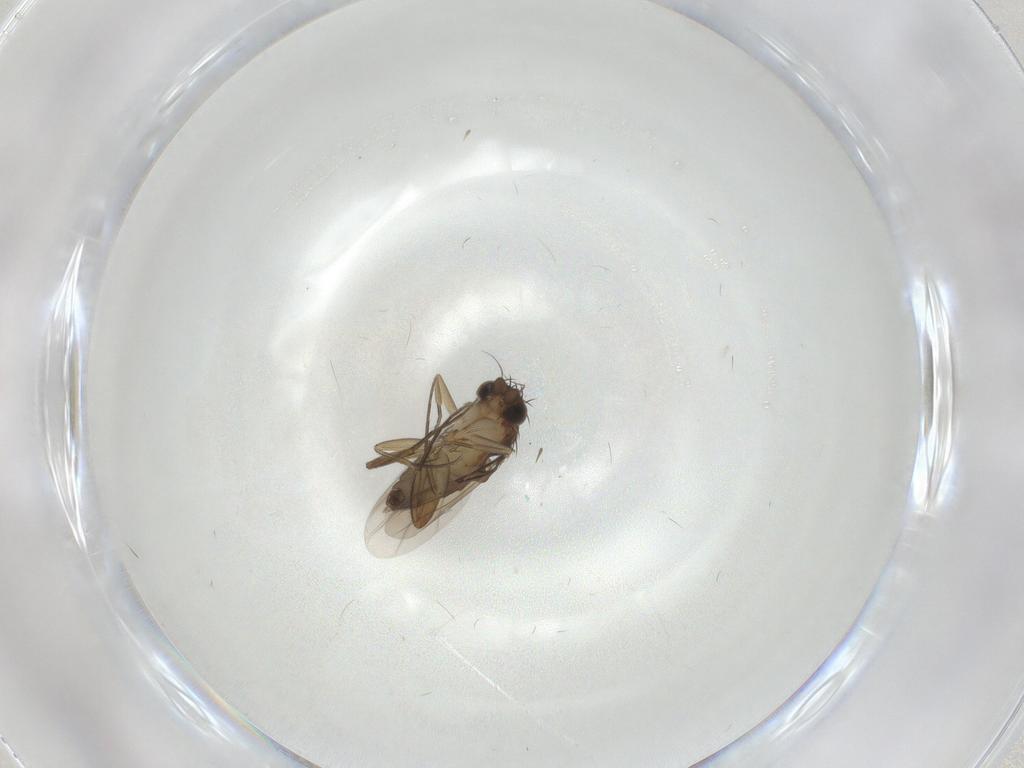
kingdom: Animalia
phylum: Arthropoda
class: Insecta
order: Diptera
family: Phoridae
